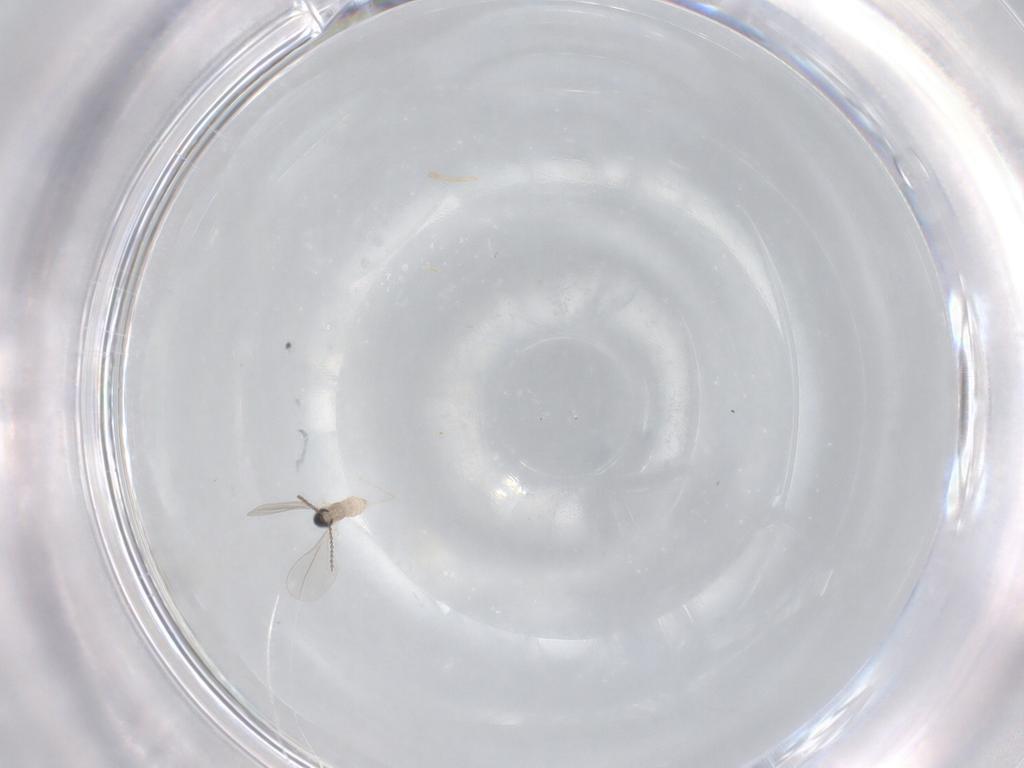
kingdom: Animalia
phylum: Arthropoda
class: Insecta
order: Diptera
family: Cecidomyiidae
